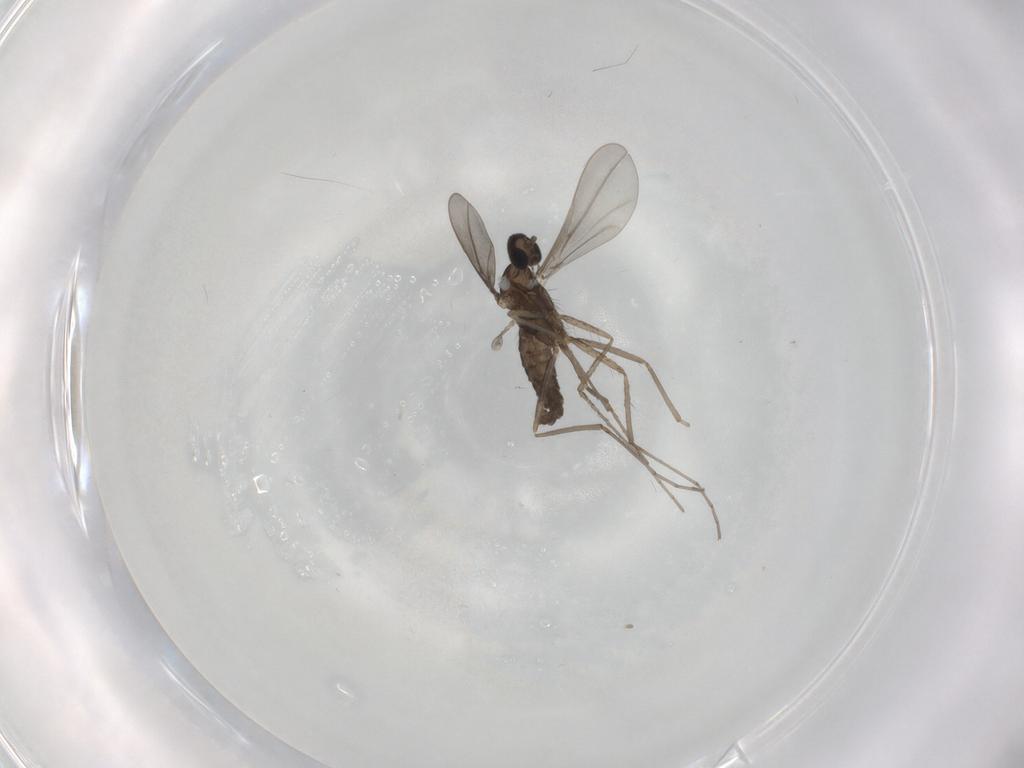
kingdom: Animalia
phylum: Arthropoda
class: Insecta
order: Diptera
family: Cecidomyiidae
